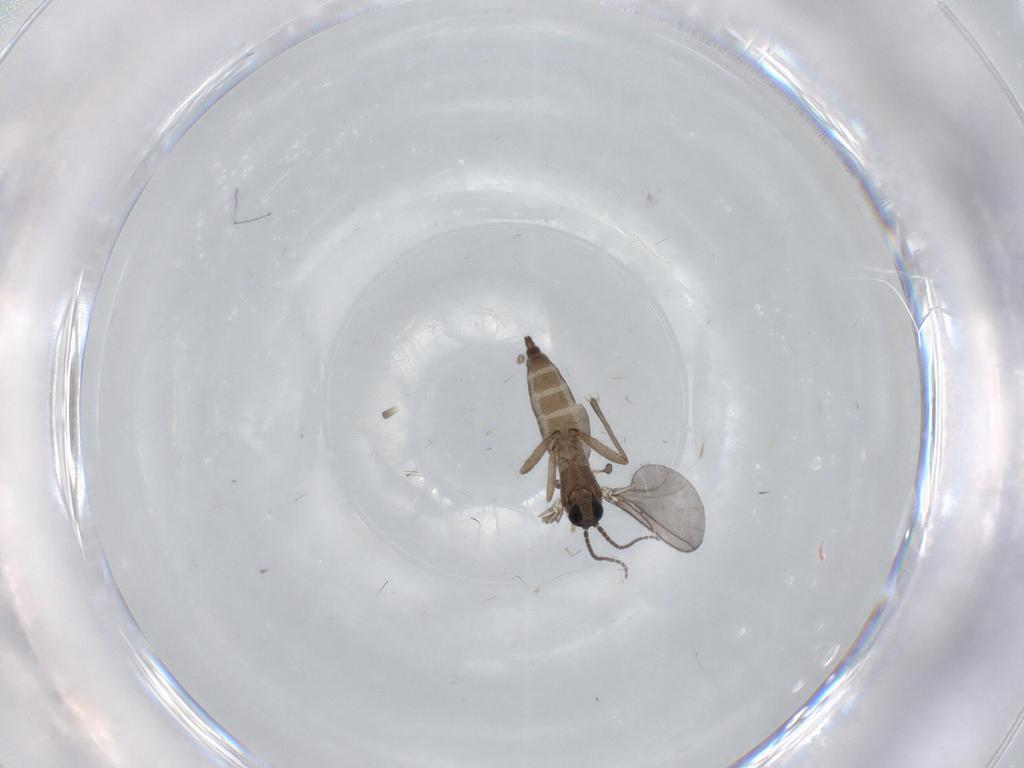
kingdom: Animalia
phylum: Arthropoda
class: Insecta
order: Diptera
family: Sciaridae
